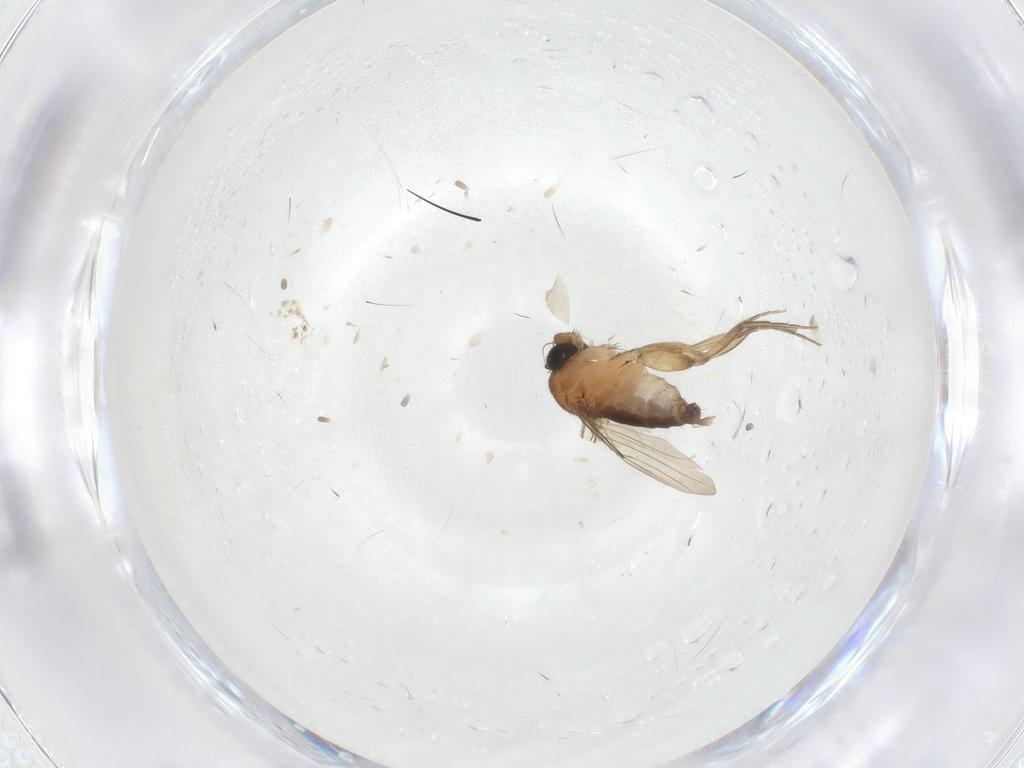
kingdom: Animalia
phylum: Arthropoda
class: Insecta
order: Diptera
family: Phoridae
